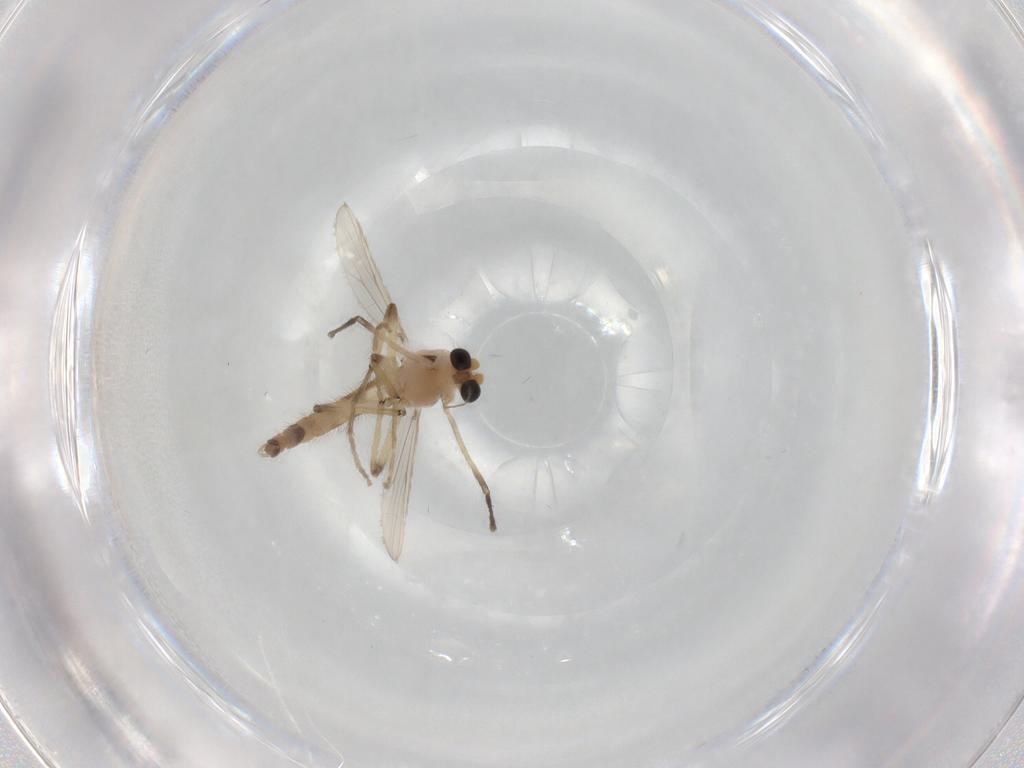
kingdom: Animalia
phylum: Arthropoda
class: Insecta
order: Diptera
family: Chironomidae
